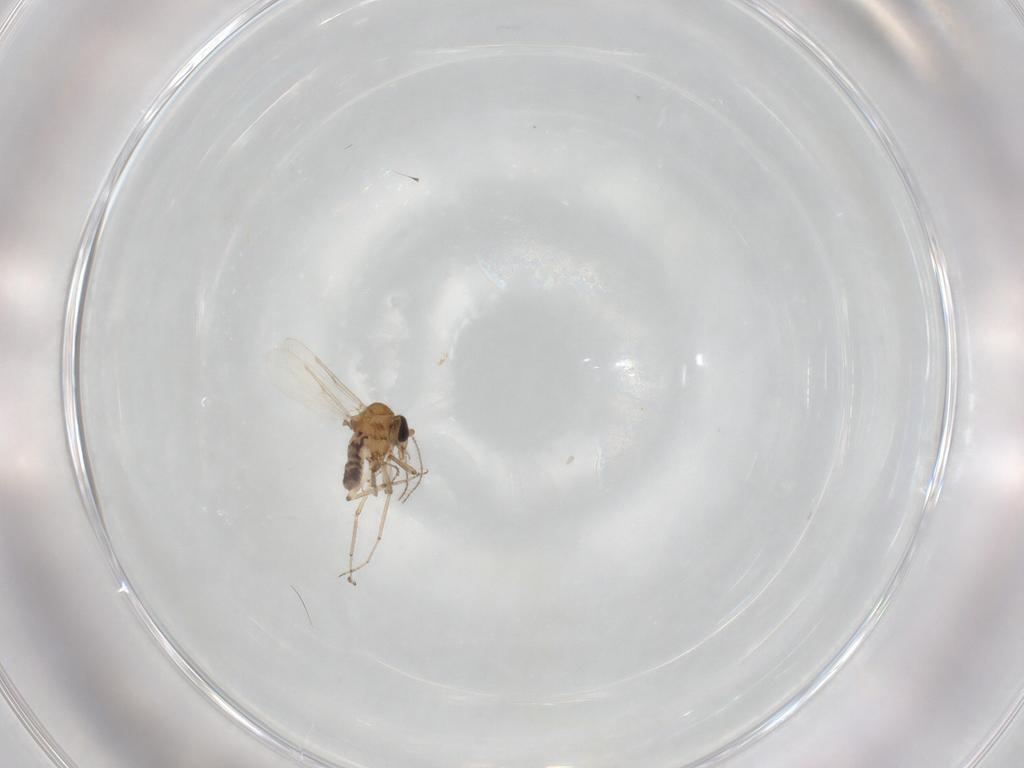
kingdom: Animalia
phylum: Arthropoda
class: Insecta
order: Diptera
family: Ceratopogonidae
